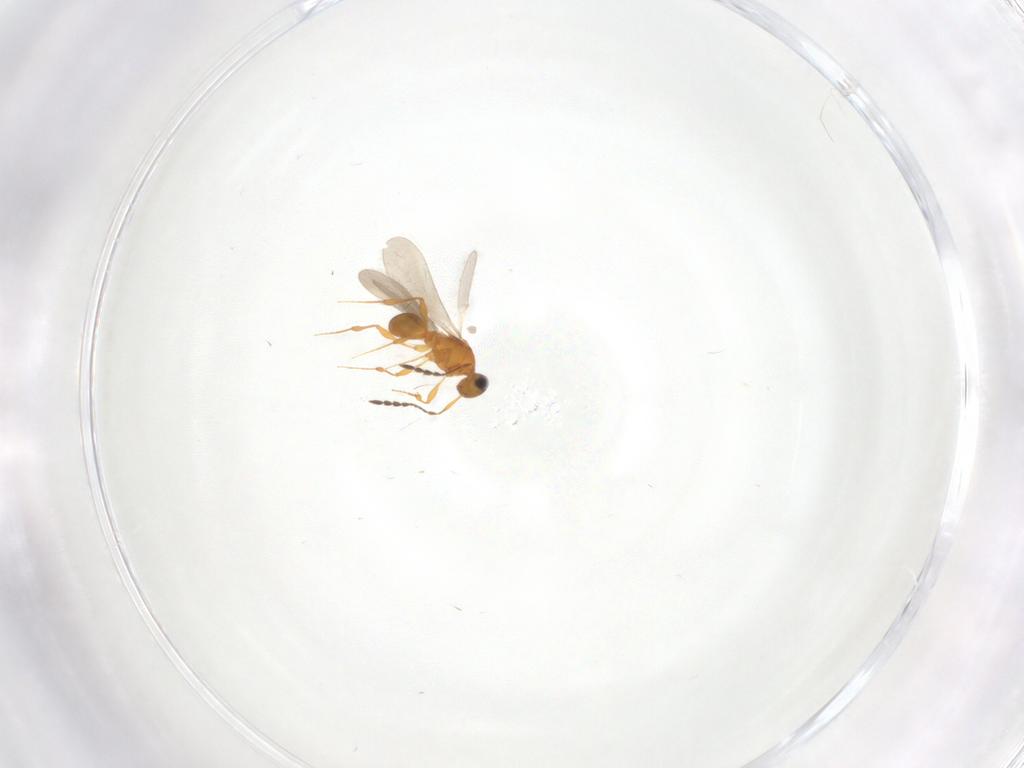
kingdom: Animalia
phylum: Arthropoda
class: Insecta
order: Hymenoptera
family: Platygastridae
